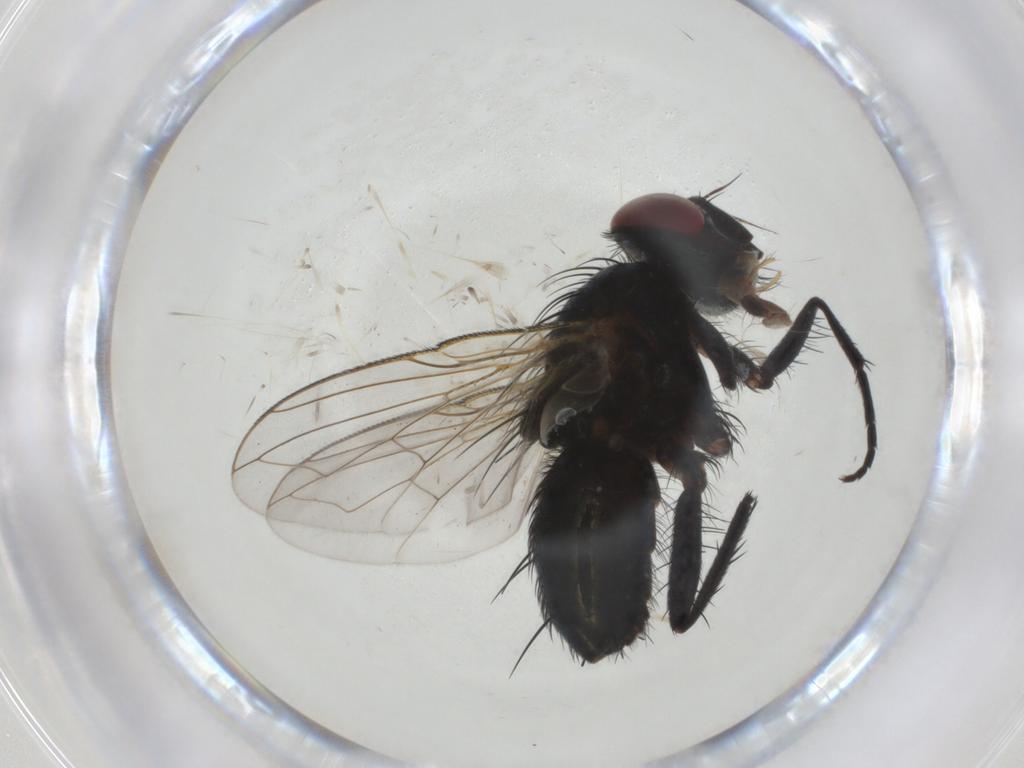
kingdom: Animalia
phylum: Arthropoda
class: Insecta
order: Diptera
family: Tachinidae
